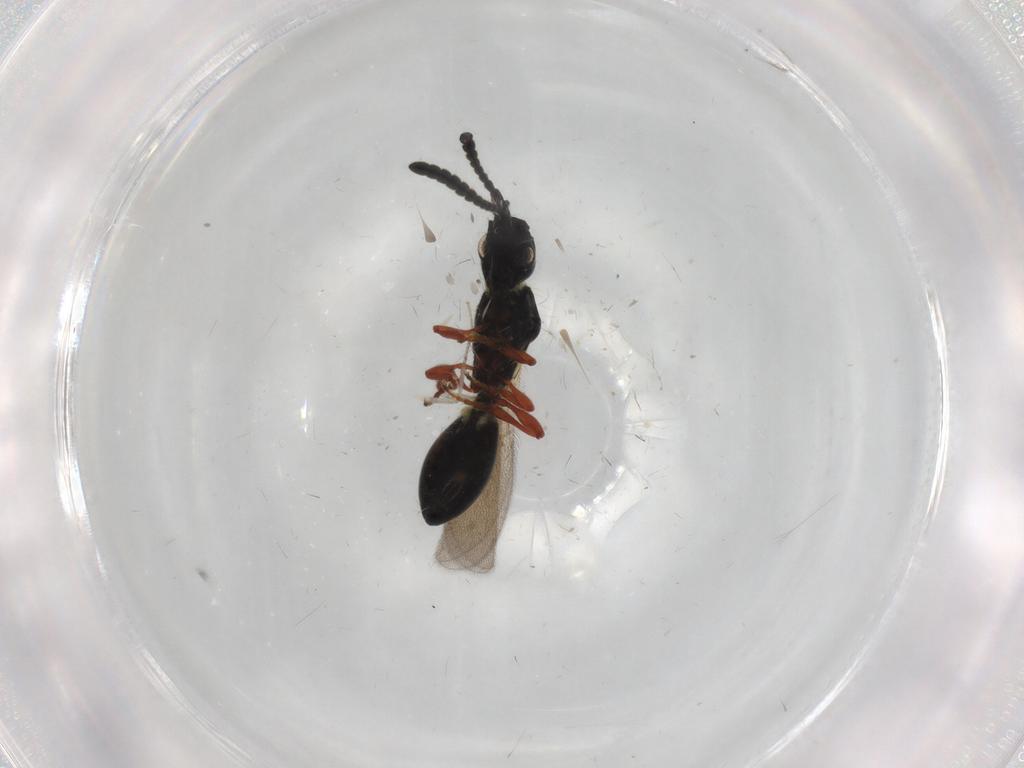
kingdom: Animalia
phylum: Arthropoda
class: Insecta
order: Hymenoptera
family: Diapriidae
